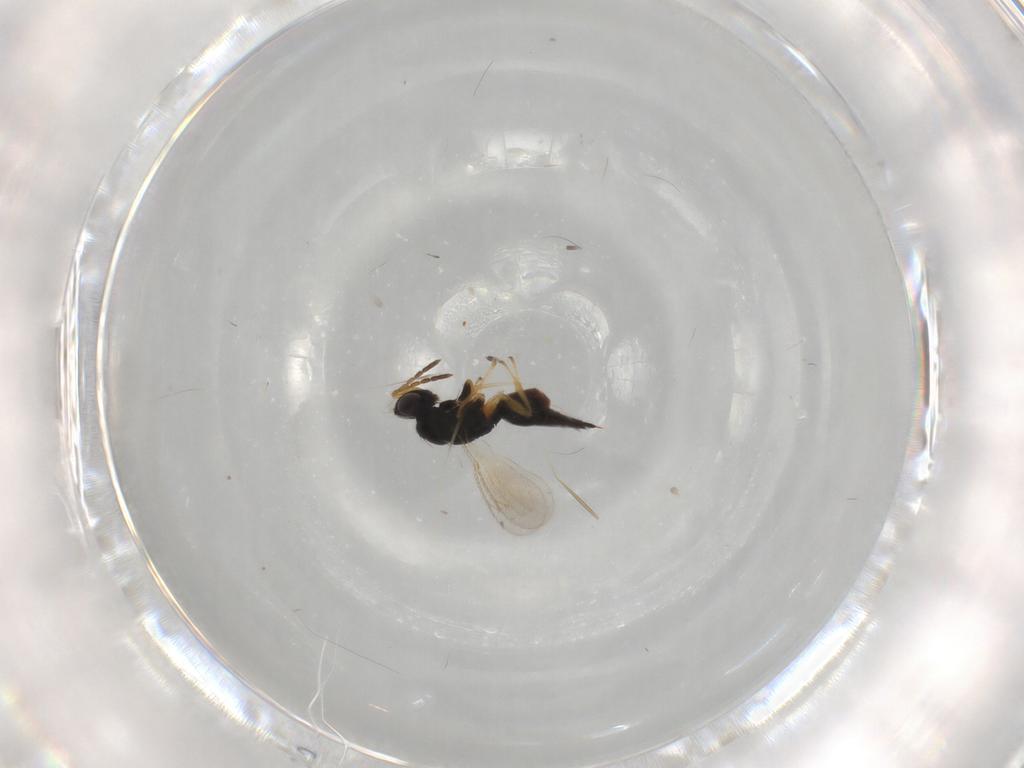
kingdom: Animalia
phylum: Arthropoda
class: Insecta
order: Hymenoptera
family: Eulophidae
